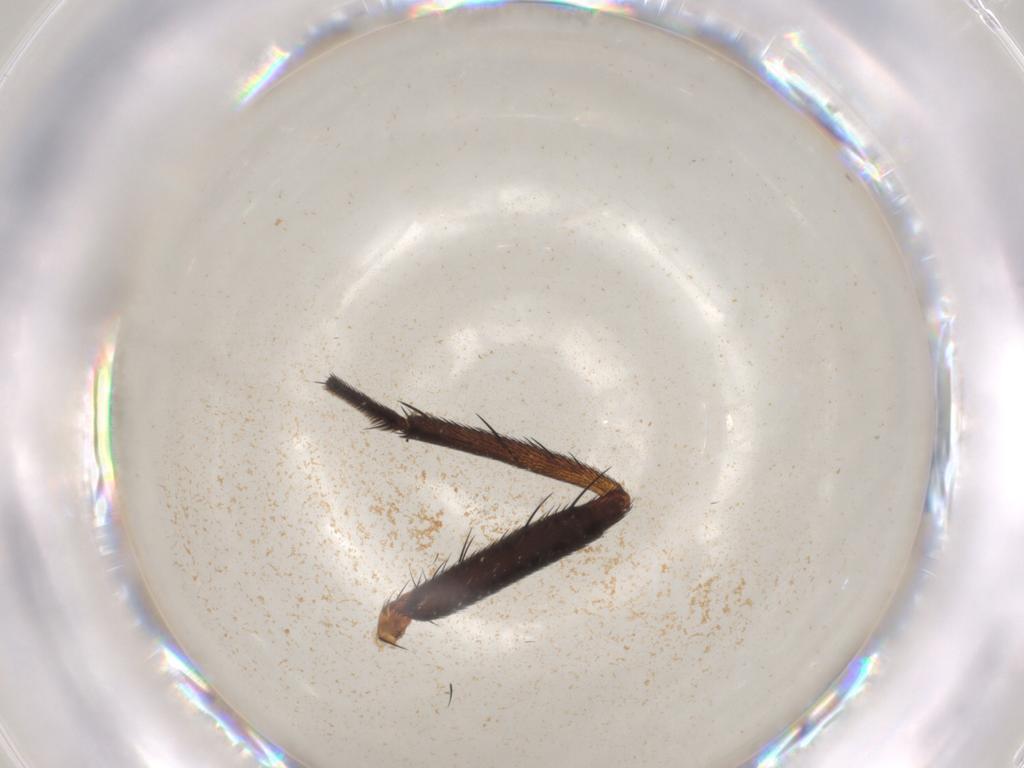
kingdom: Animalia
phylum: Arthropoda
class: Insecta
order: Diptera
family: Calliphoridae
